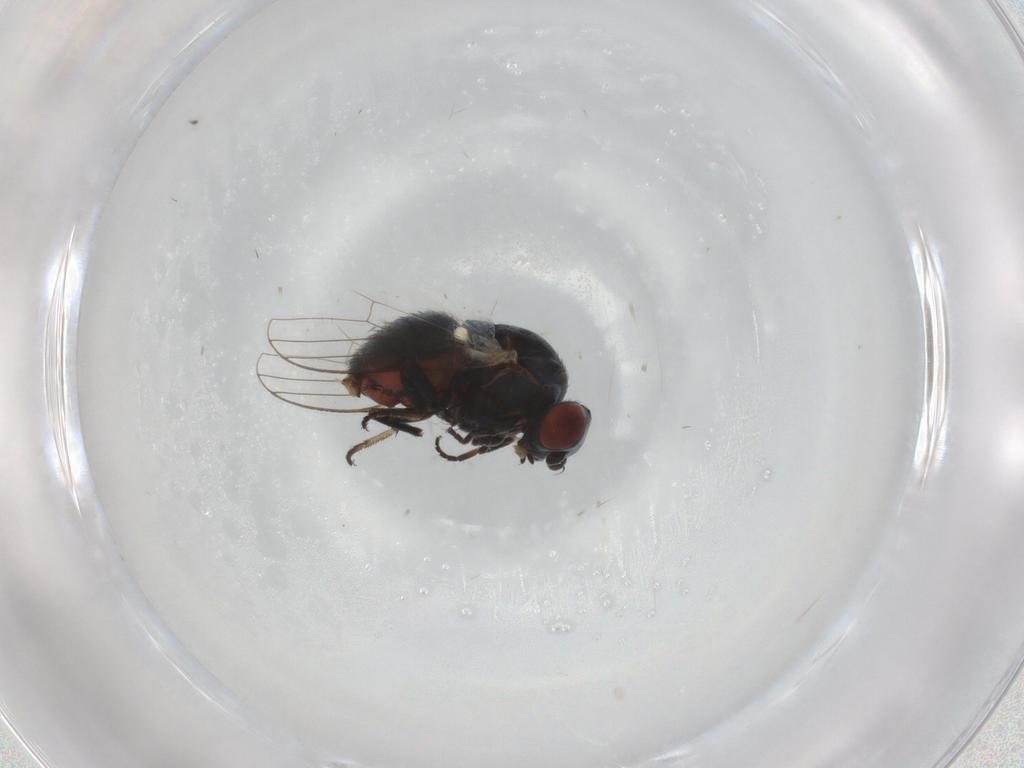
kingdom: Animalia
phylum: Arthropoda
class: Insecta
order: Diptera
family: Chamaemyiidae
